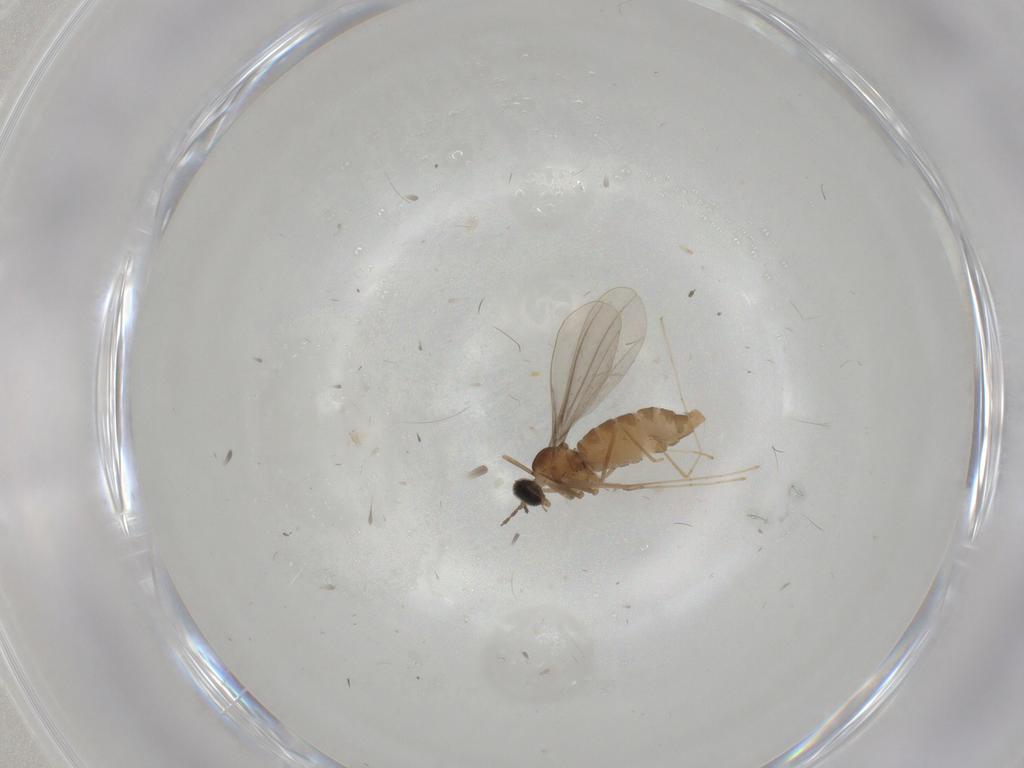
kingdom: Animalia
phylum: Arthropoda
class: Insecta
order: Diptera
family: Cecidomyiidae
